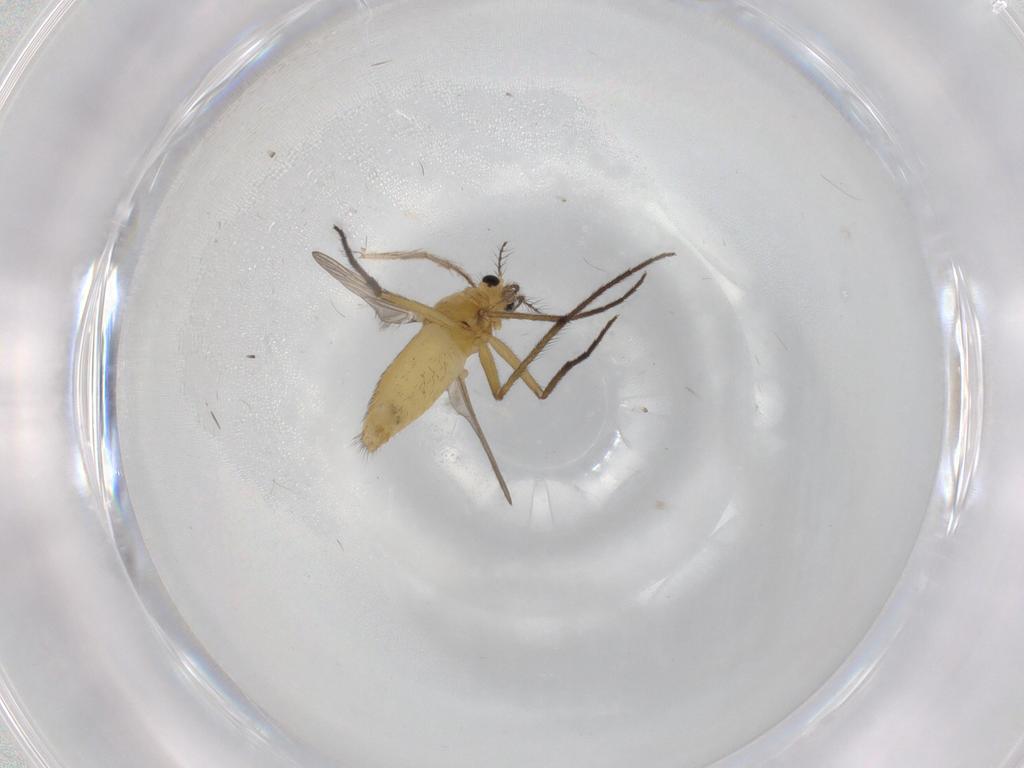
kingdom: Animalia
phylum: Arthropoda
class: Insecta
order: Diptera
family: Chironomidae
